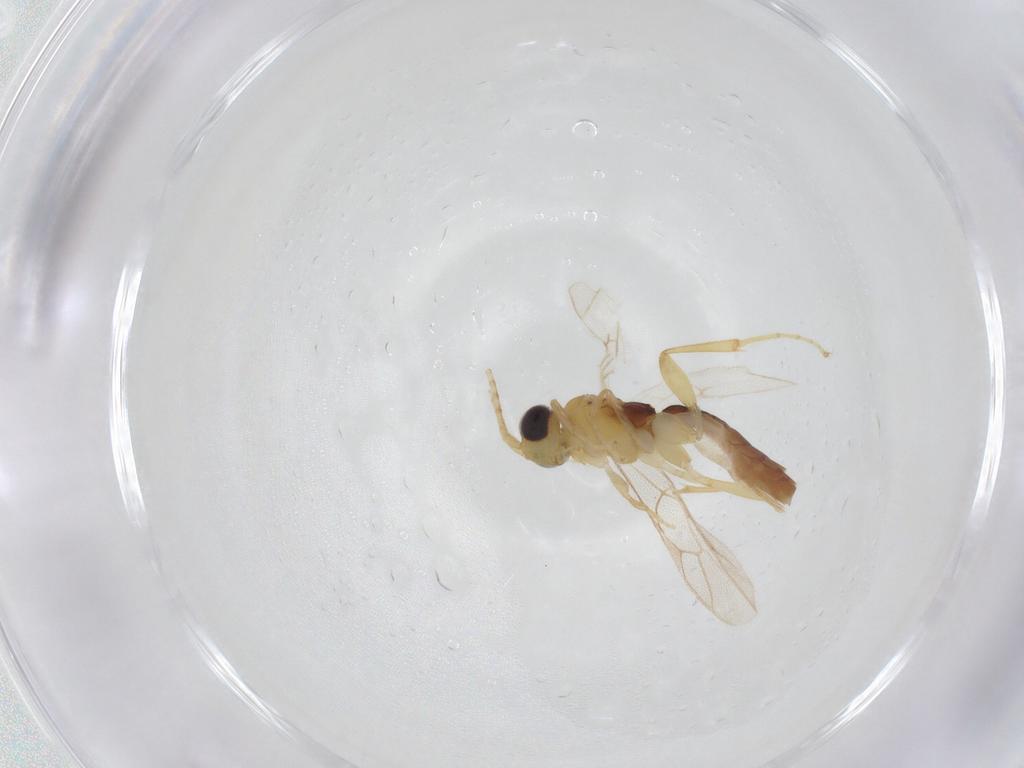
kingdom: Animalia
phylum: Arthropoda
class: Insecta
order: Hymenoptera
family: Ichneumonidae
